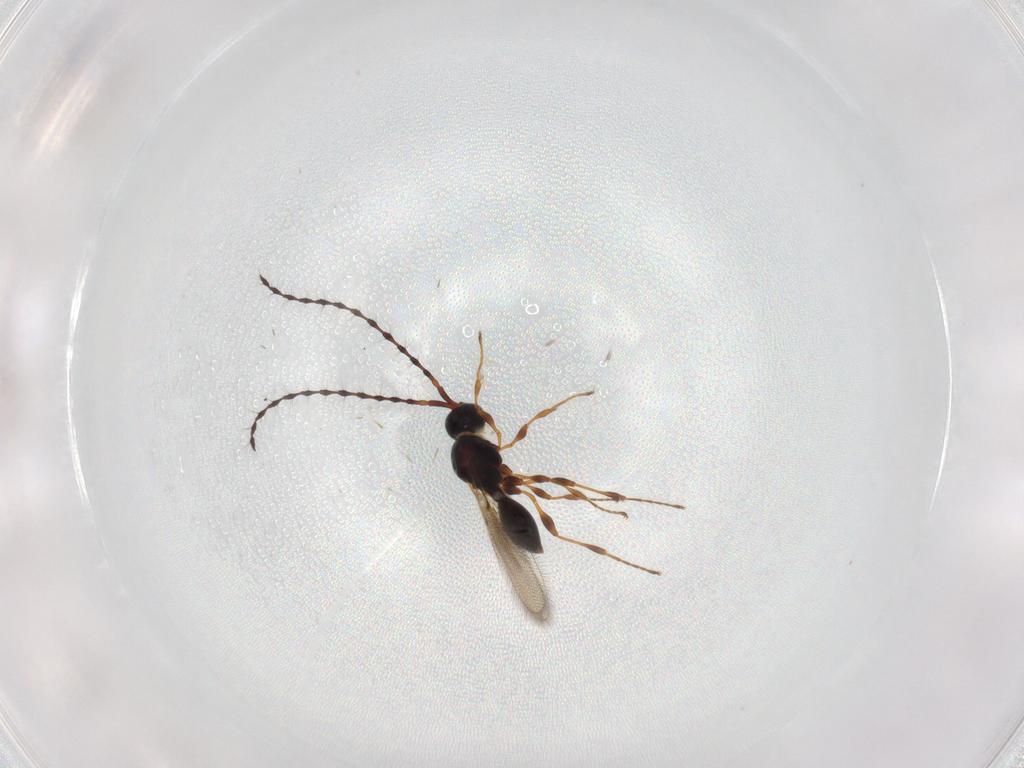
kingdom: Animalia
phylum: Arthropoda
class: Insecta
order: Hymenoptera
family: Diapriidae
